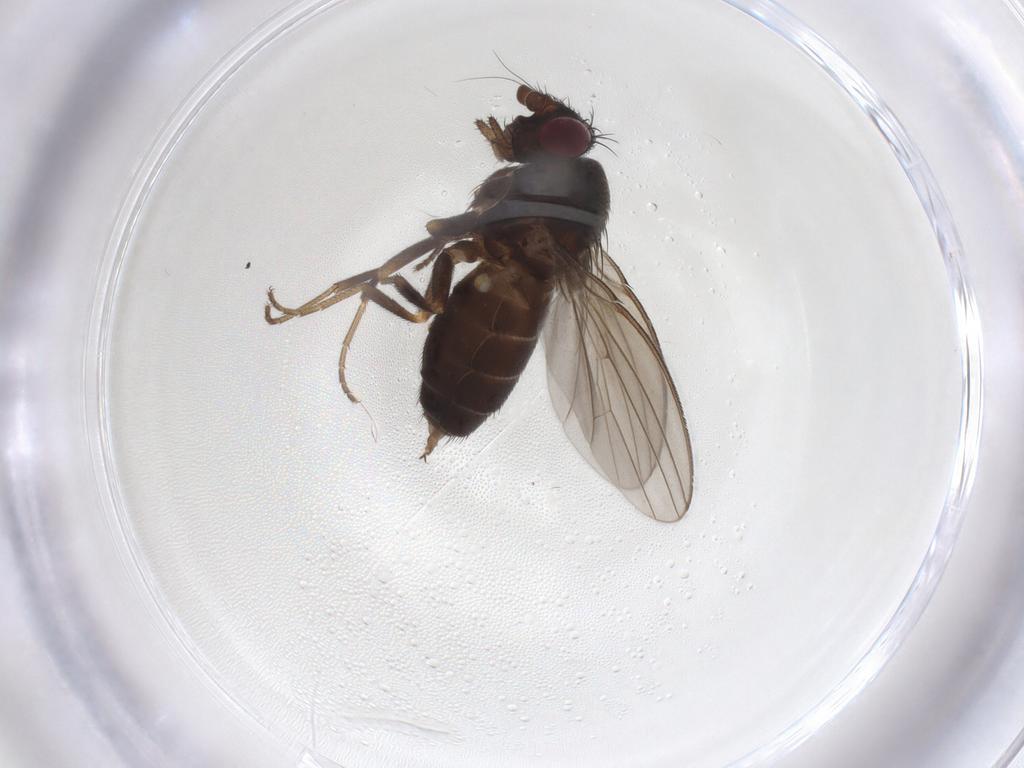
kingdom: Animalia
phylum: Arthropoda
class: Insecta
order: Diptera
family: Milichiidae
